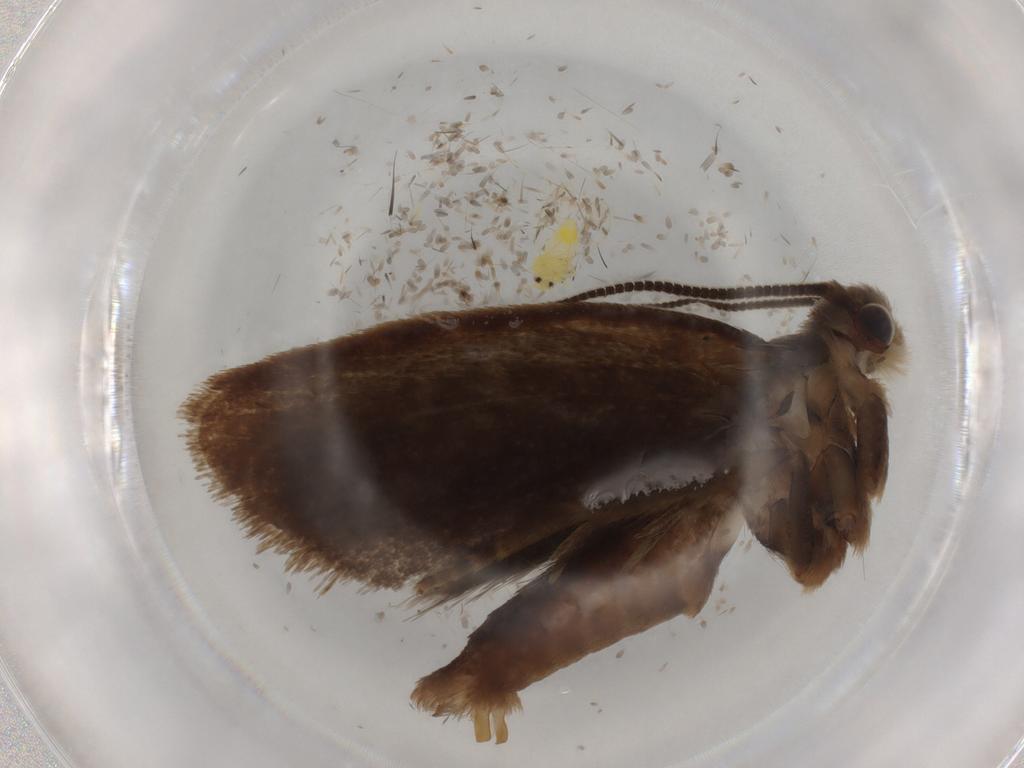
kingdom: Animalia
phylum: Arthropoda
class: Insecta
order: Lepidoptera
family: Tineidae
